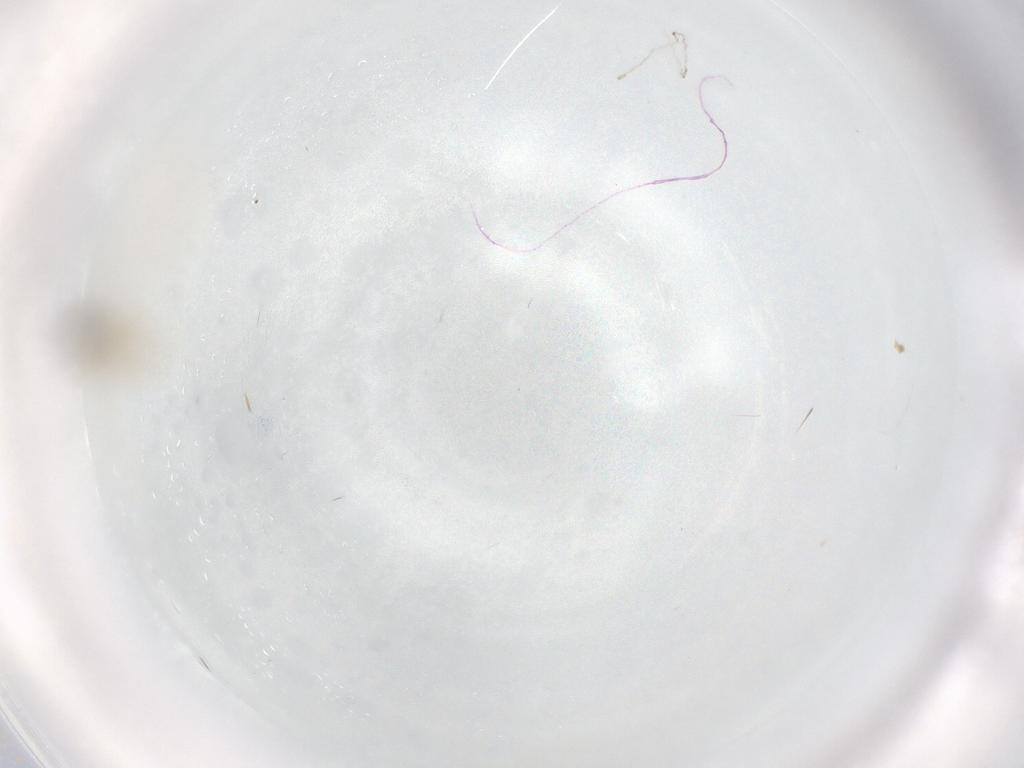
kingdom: Animalia
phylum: Arthropoda
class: Insecta
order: Diptera
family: Cecidomyiidae
